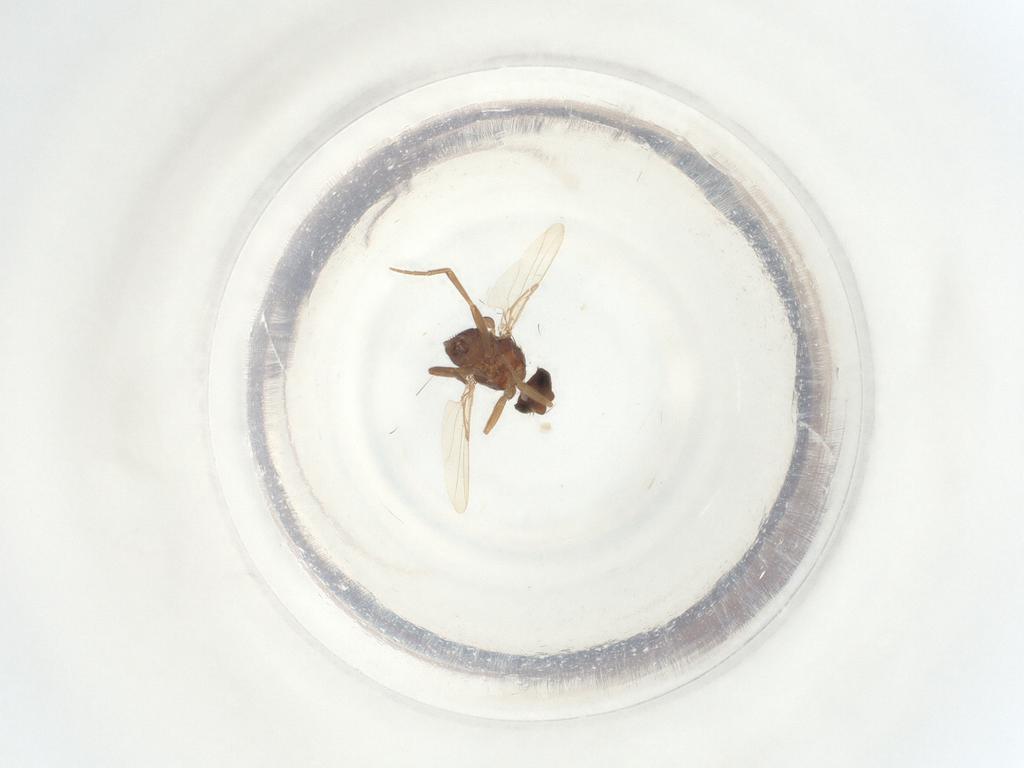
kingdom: Animalia
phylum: Arthropoda
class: Insecta
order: Diptera
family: Phoridae
